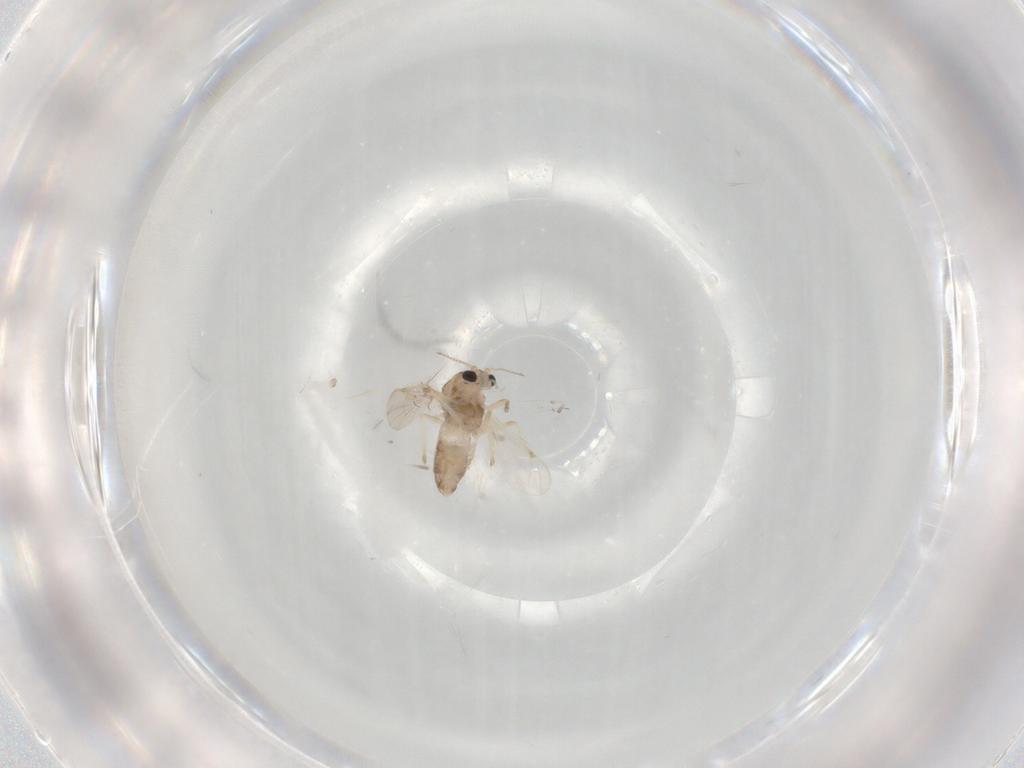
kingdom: Animalia
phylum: Arthropoda
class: Insecta
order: Diptera
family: Chironomidae
